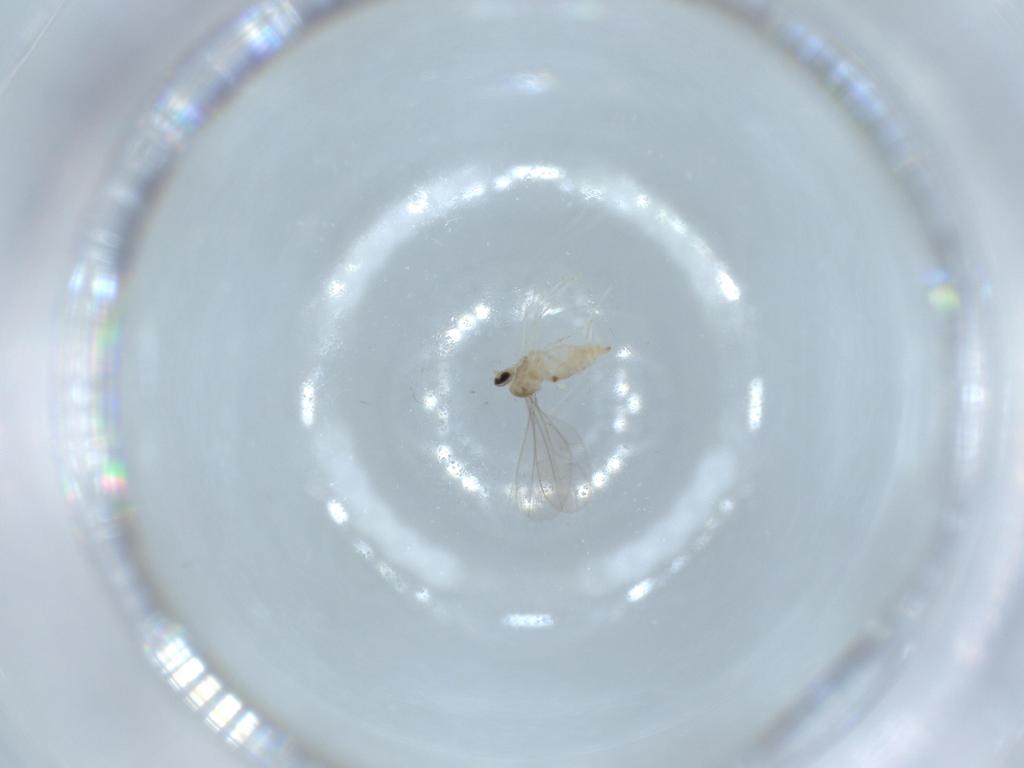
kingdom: Animalia
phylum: Arthropoda
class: Insecta
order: Diptera
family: Cecidomyiidae
